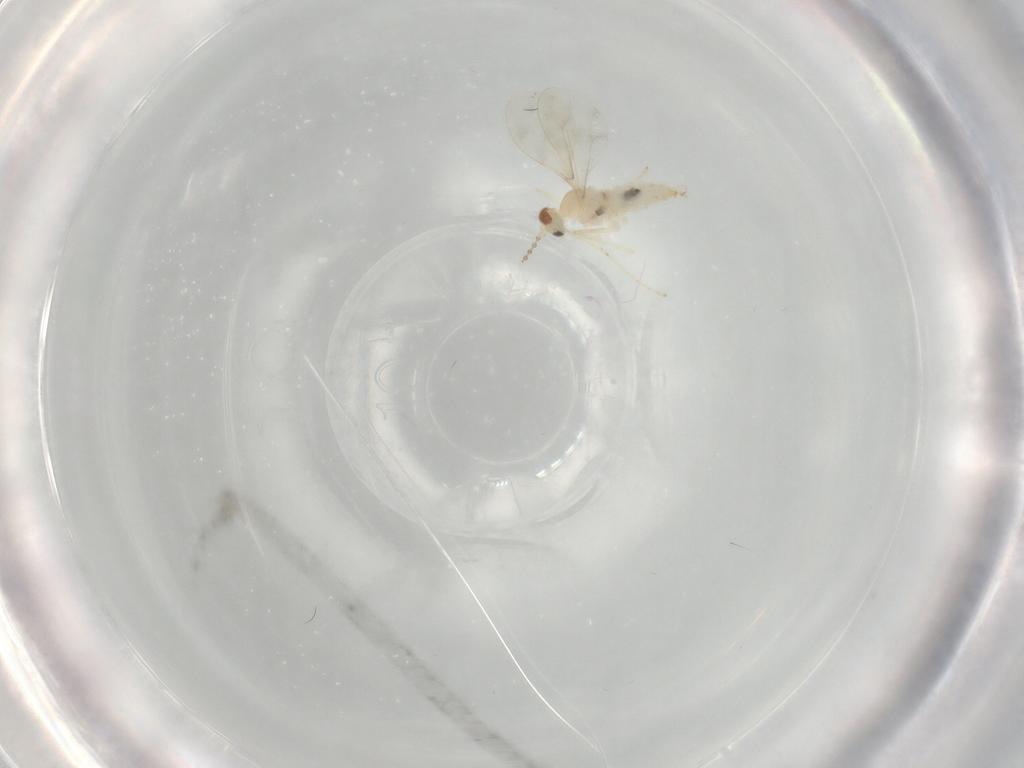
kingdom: Animalia
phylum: Arthropoda
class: Insecta
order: Diptera
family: Cecidomyiidae
